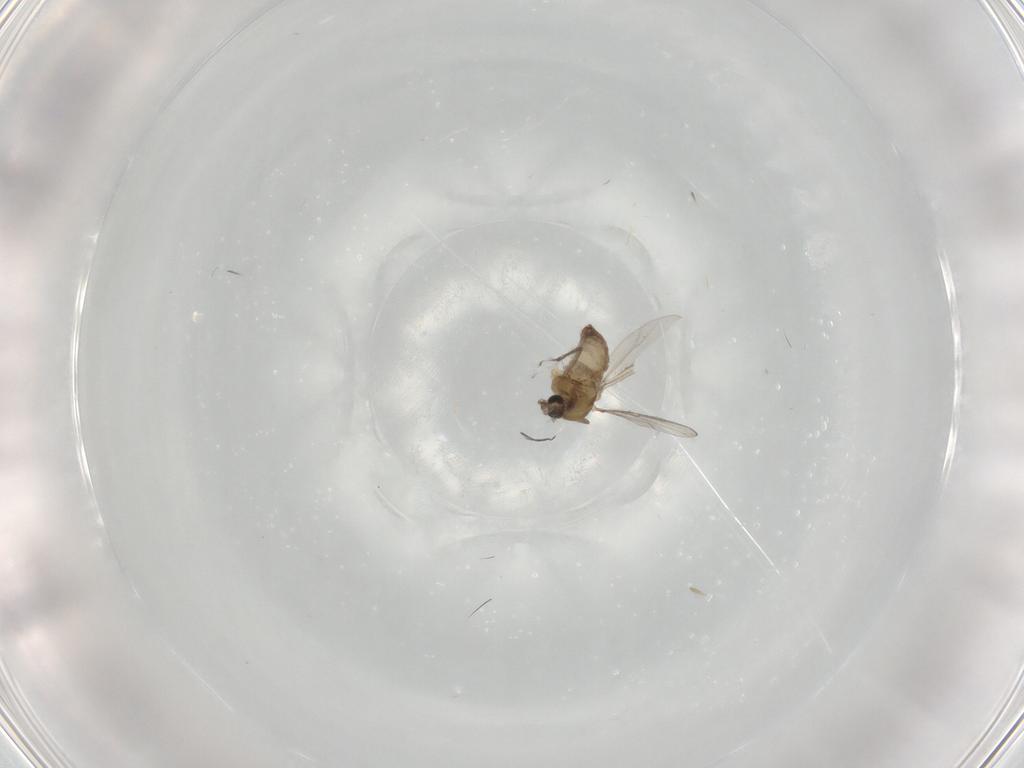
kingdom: Animalia
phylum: Arthropoda
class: Insecta
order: Diptera
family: Chironomidae
